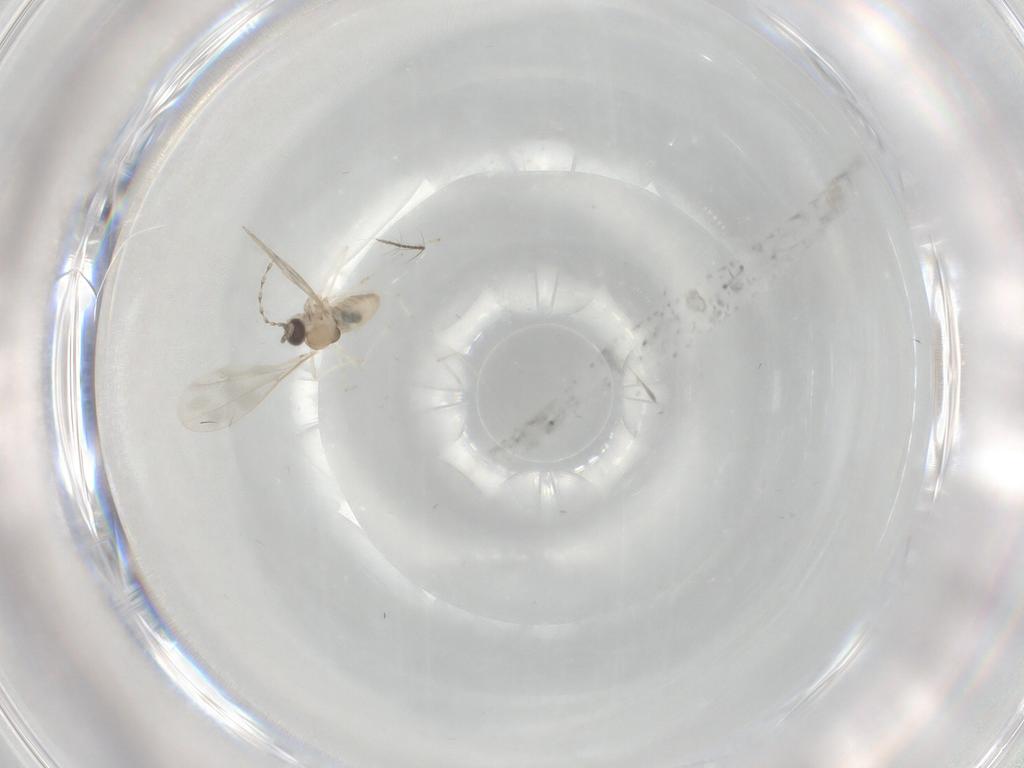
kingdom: Animalia
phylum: Arthropoda
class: Insecta
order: Diptera
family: Cecidomyiidae
